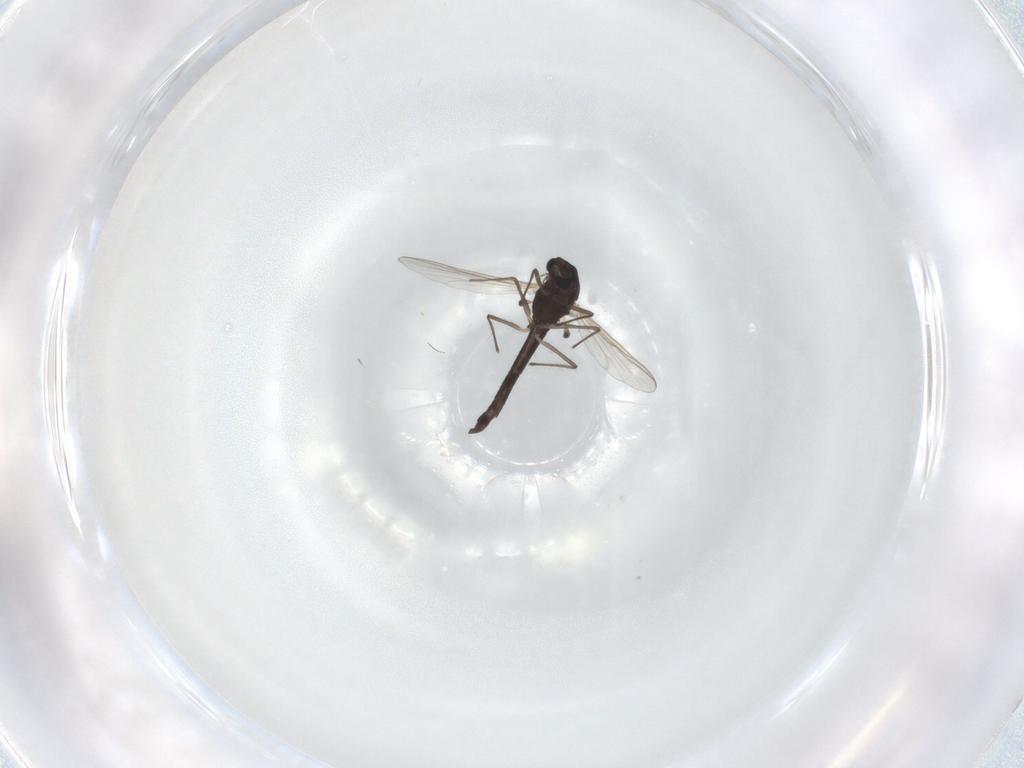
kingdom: Animalia
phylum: Arthropoda
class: Insecta
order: Diptera
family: Chironomidae
